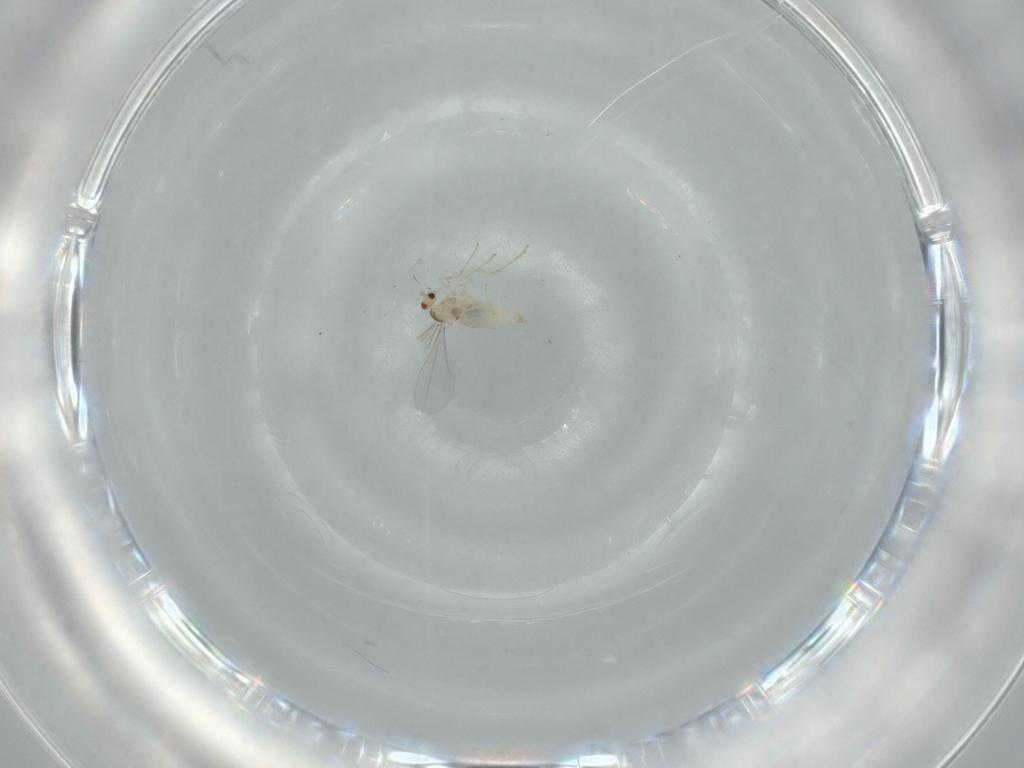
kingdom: Animalia
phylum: Arthropoda
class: Insecta
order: Diptera
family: Cecidomyiidae
